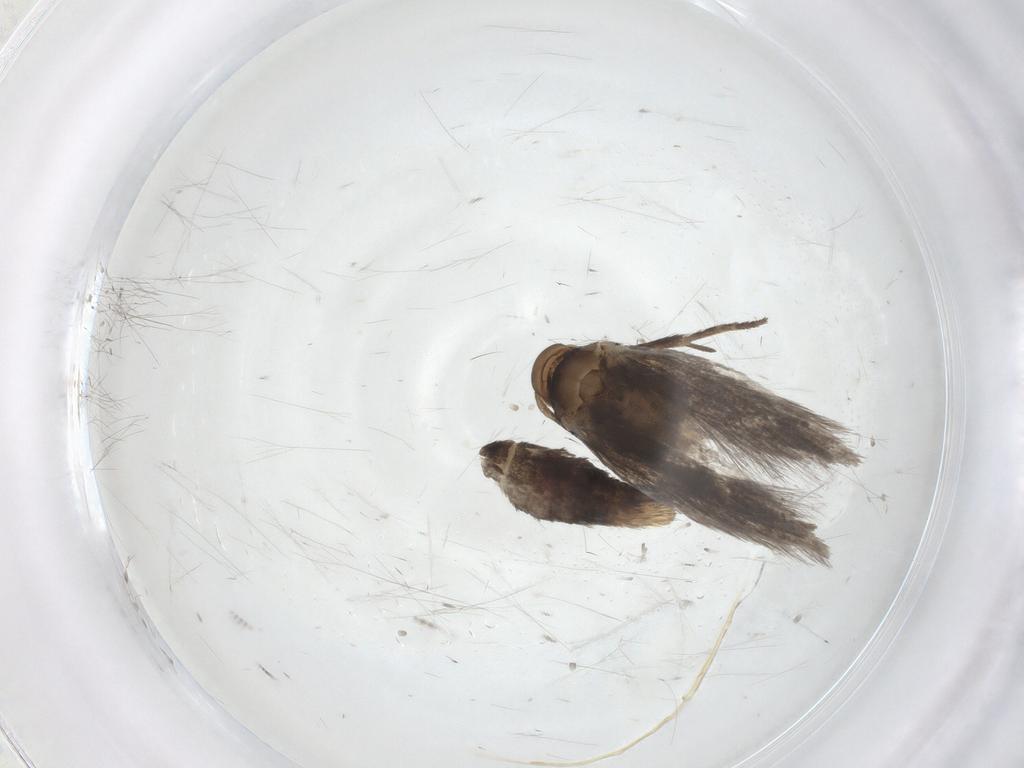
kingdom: Animalia
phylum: Arthropoda
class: Insecta
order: Lepidoptera
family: Elachistidae
